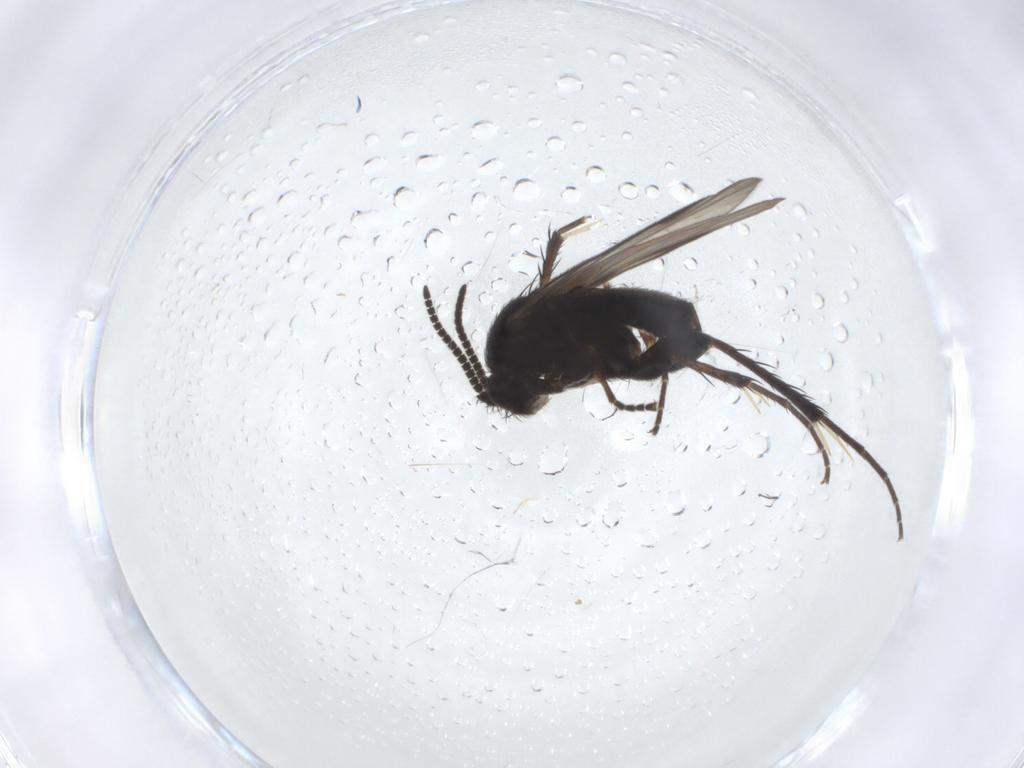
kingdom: Animalia
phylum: Arthropoda
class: Insecta
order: Diptera
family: Mycetophilidae
